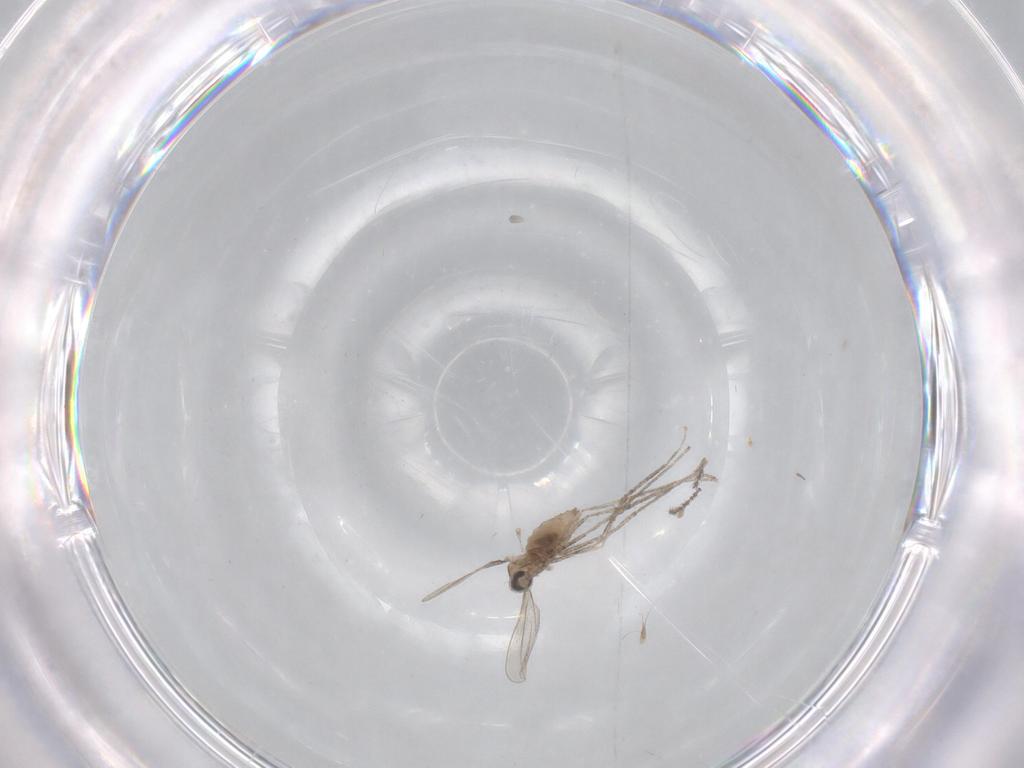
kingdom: Animalia
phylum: Arthropoda
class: Insecta
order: Diptera
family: Cecidomyiidae
